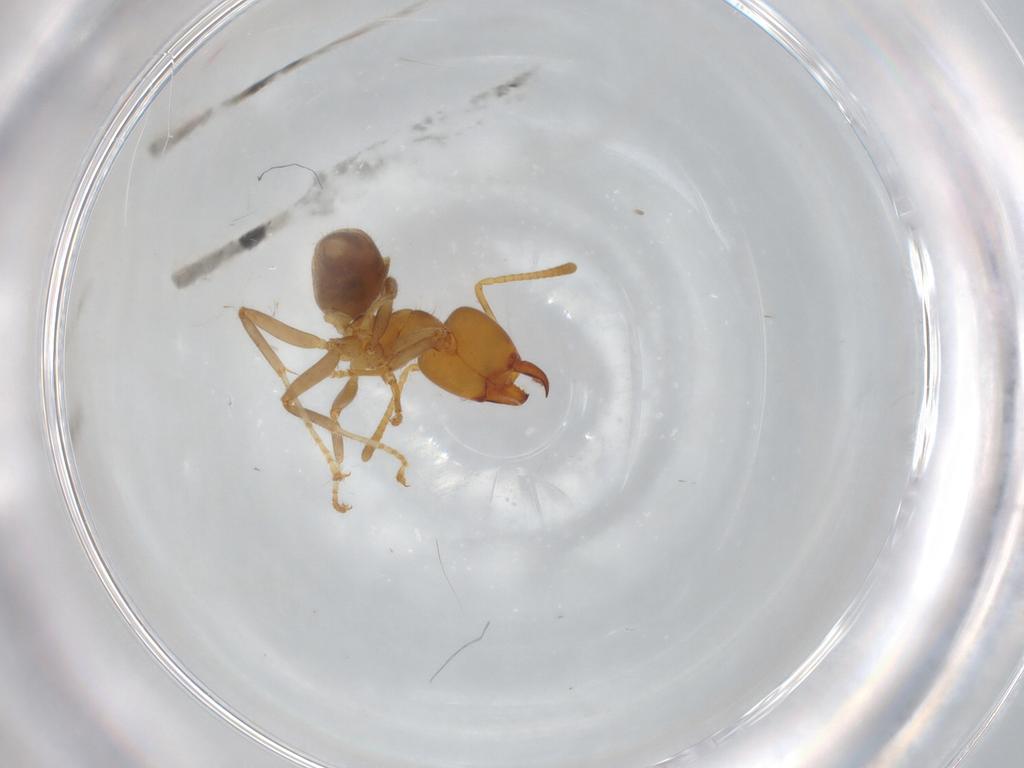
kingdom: Animalia
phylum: Arthropoda
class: Insecta
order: Hymenoptera
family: Formicidae
